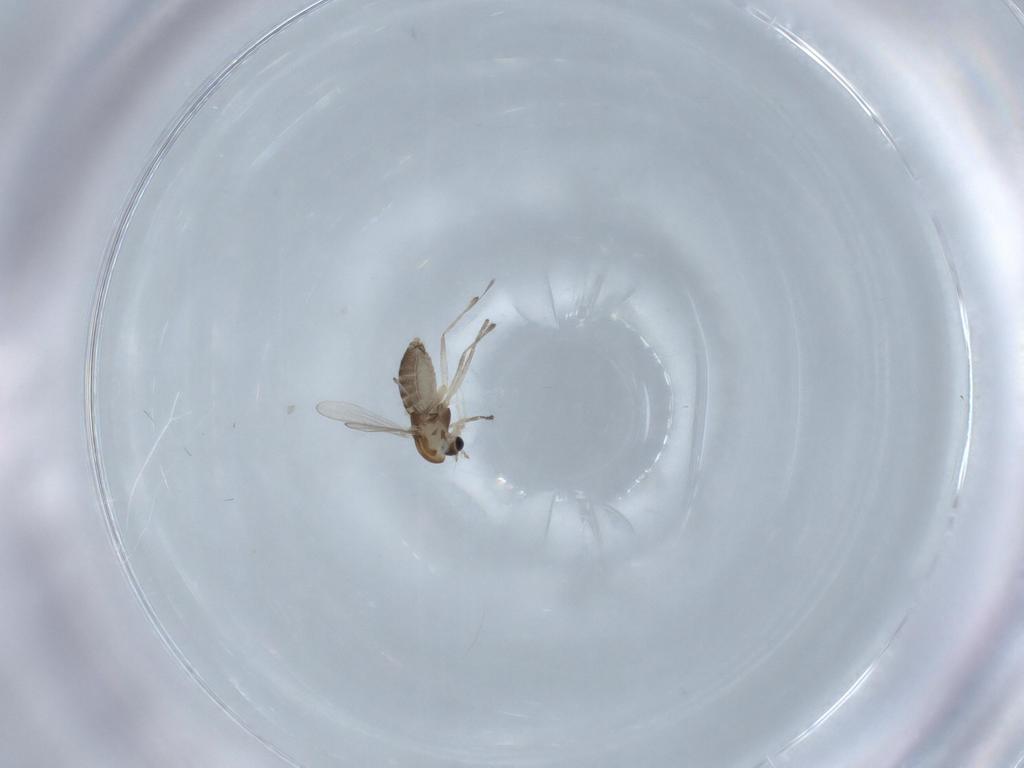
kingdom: Animalia
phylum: Arthropoda
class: Insecta
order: Diptera
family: Chironomidae
